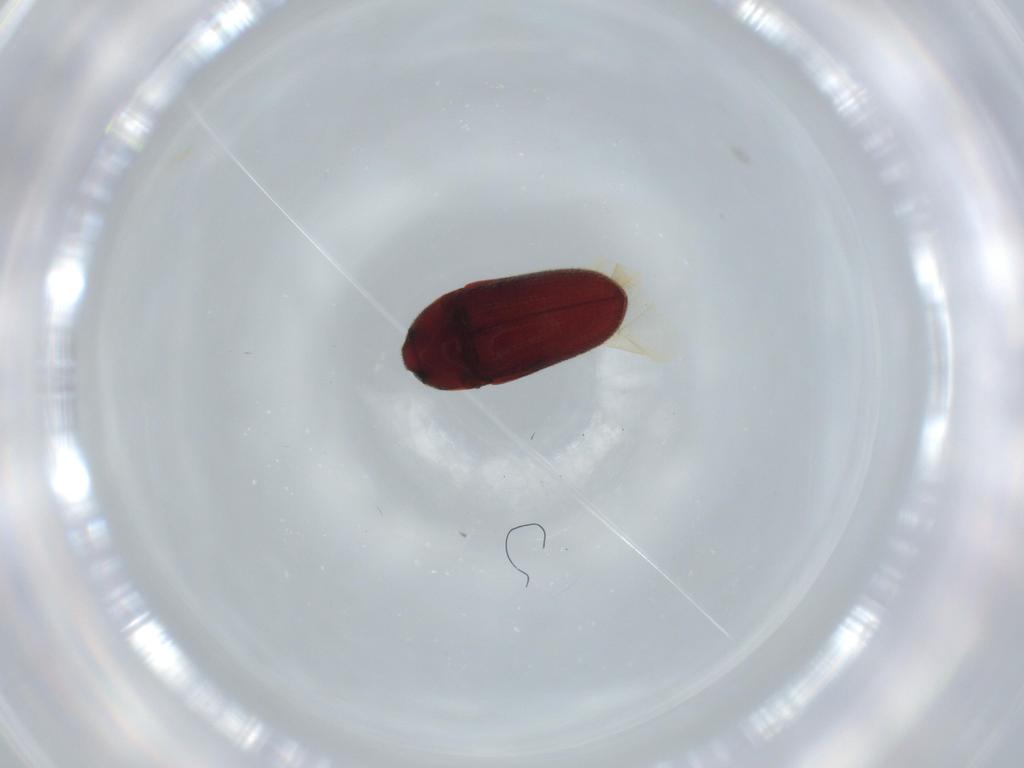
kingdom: Animalia
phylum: Arthropoda
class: Insecta
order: Coleoptera
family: Throscidae
